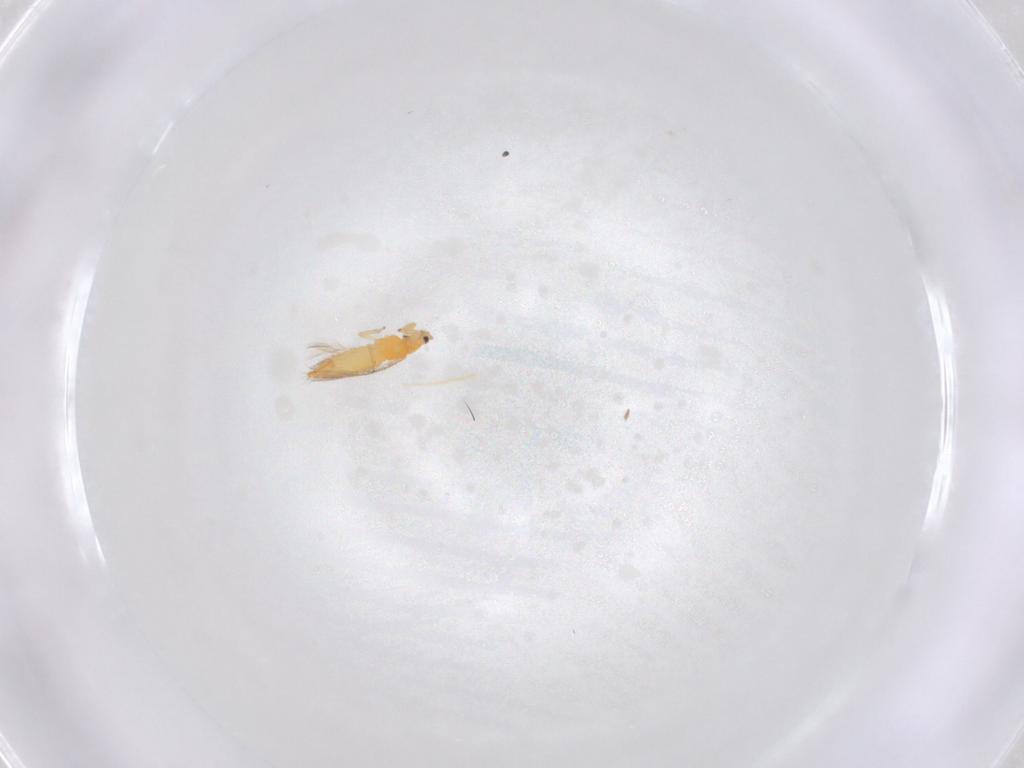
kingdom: Animalia
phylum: Arthropoda
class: Insecta
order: Thysanoptera
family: Thripidae
